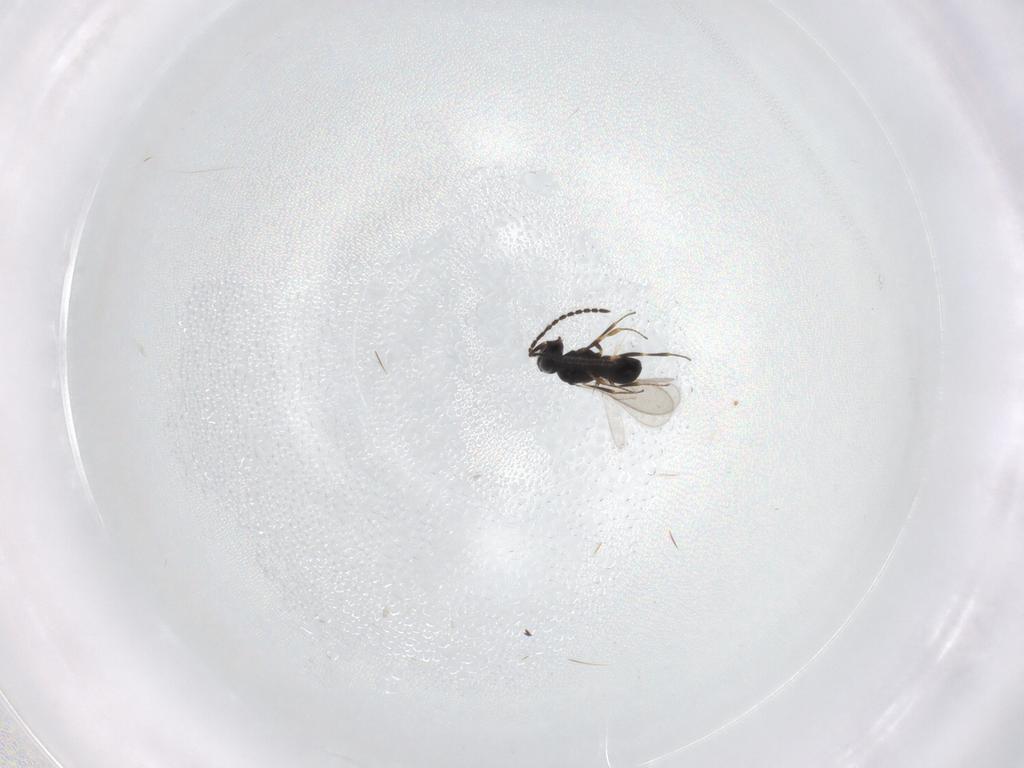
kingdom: Animalia
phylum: Arthropoda
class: Insecta
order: Hymenoptera
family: Scelionidae
